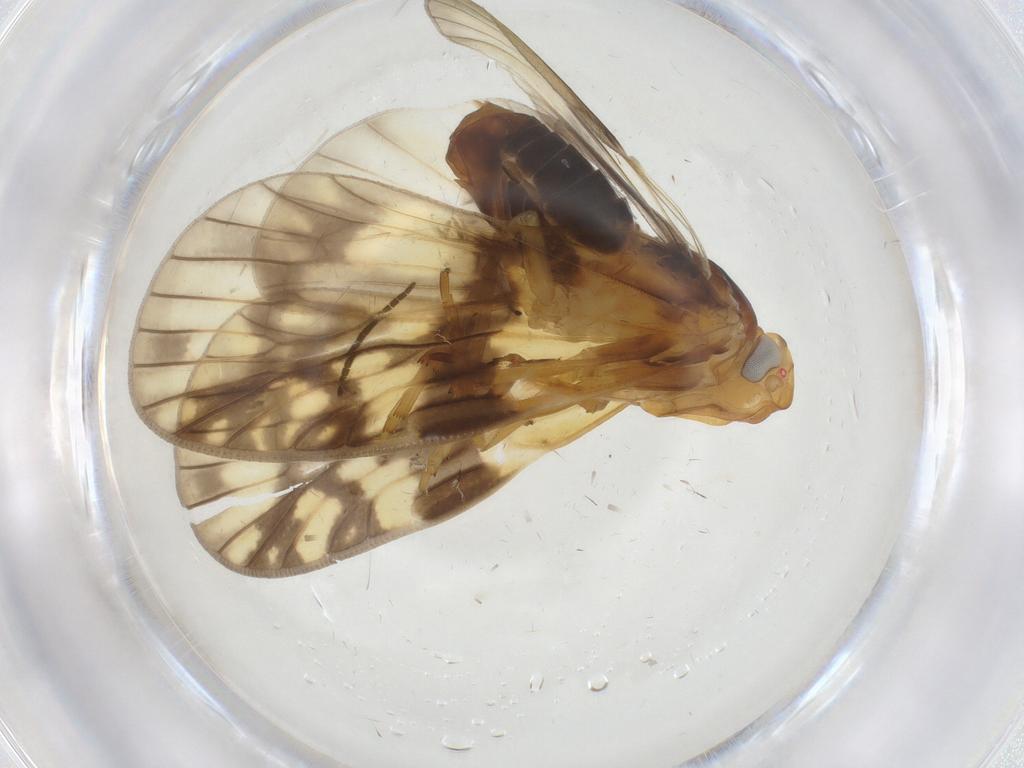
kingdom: Animalia
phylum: Arthropoda
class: Insecta
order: Hemiptera
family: Cixiidae
